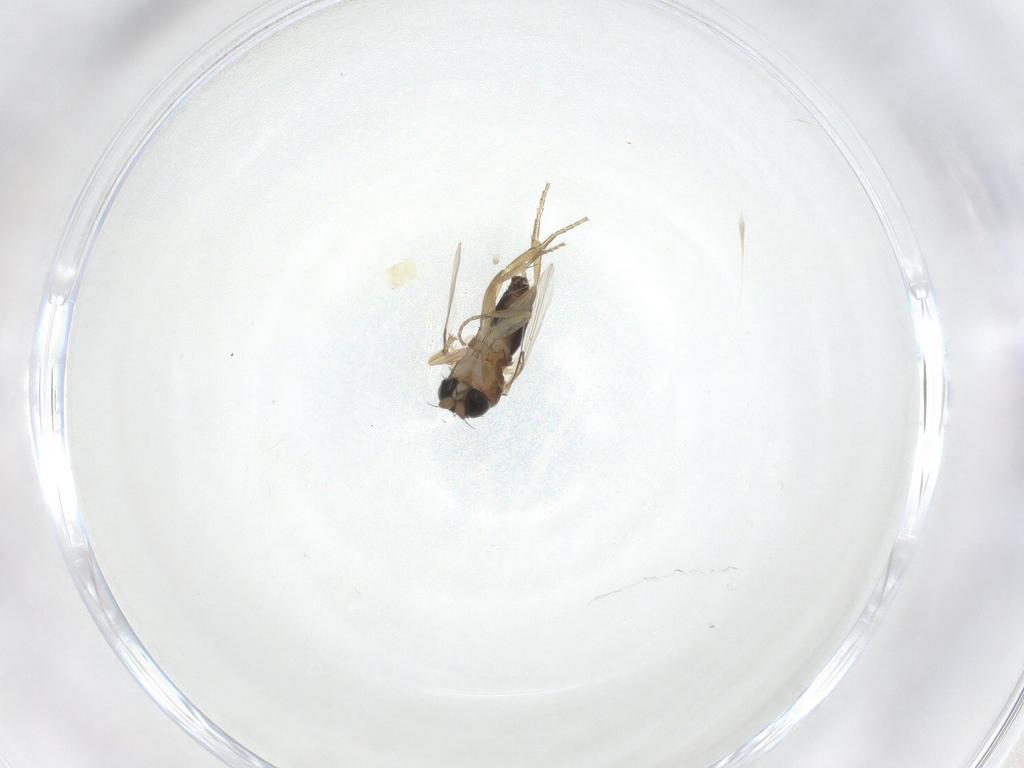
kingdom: Animalia
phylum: Arthropoda
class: Insecta
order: Diptera
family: Phoridae
